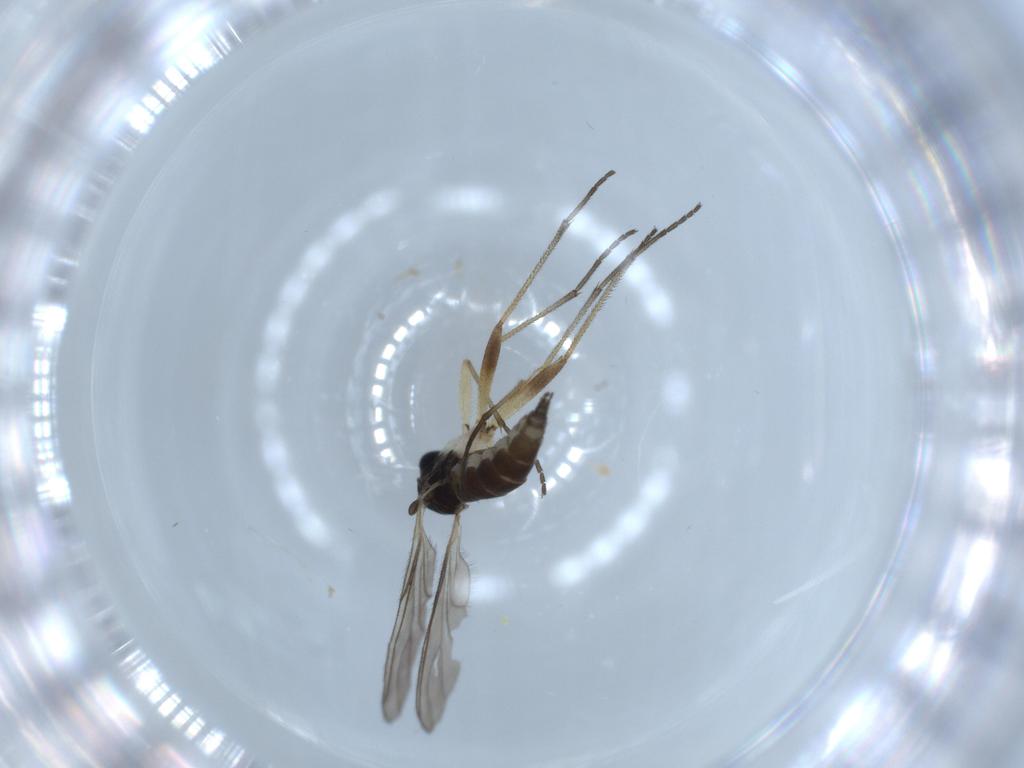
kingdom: Animalia
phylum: Arthropoda
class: Insecta
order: Diptera
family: Sciaridae
